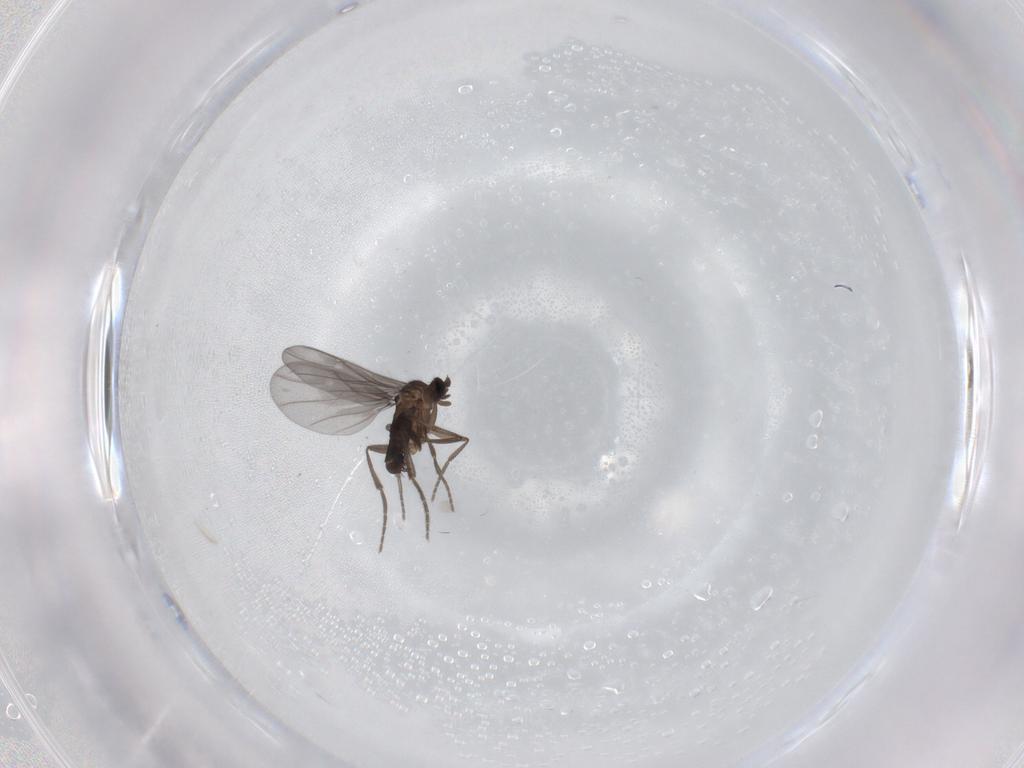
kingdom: Animalia
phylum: Arthropoda
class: Insecta
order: Diptera
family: Phoridae
